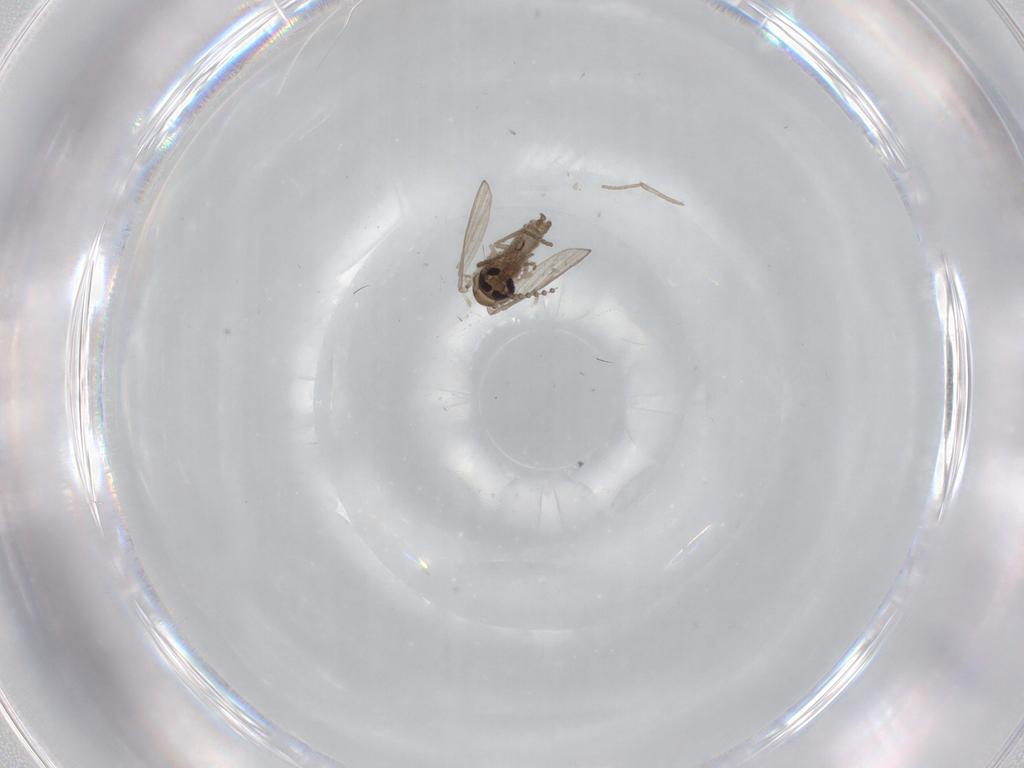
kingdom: Animalia
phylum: Arthropoda
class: Insecta
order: Diptera
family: Psychodidae
